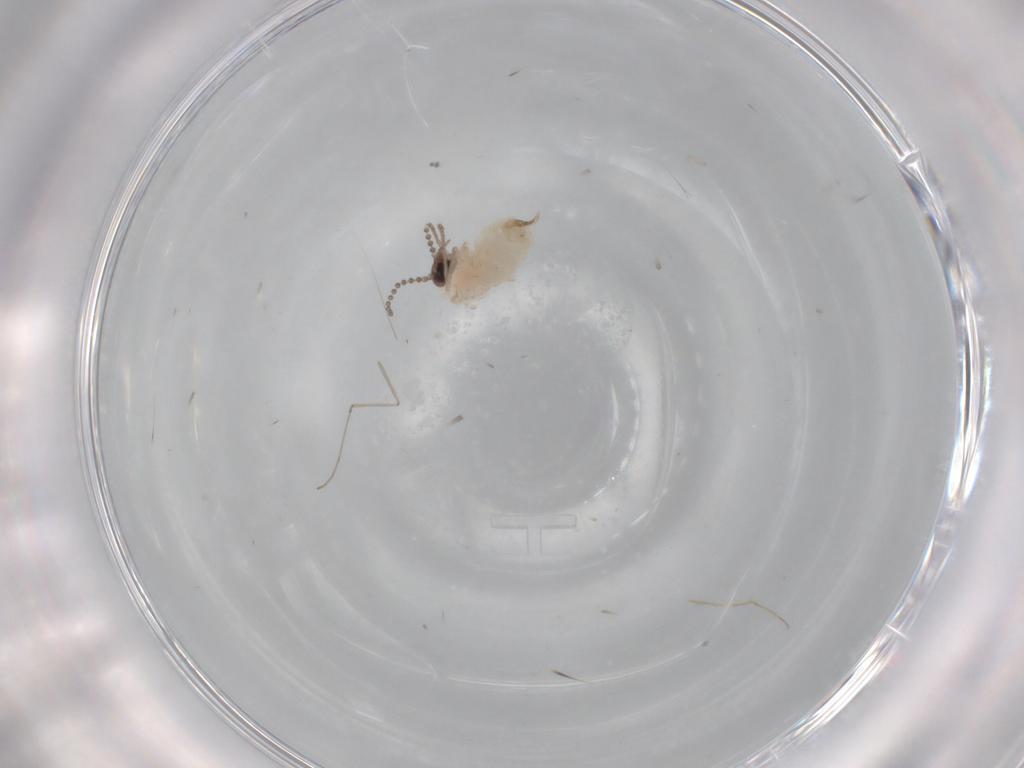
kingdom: Animalia
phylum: Arthropoda
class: Insecta
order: Diptera
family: Psychodidae
